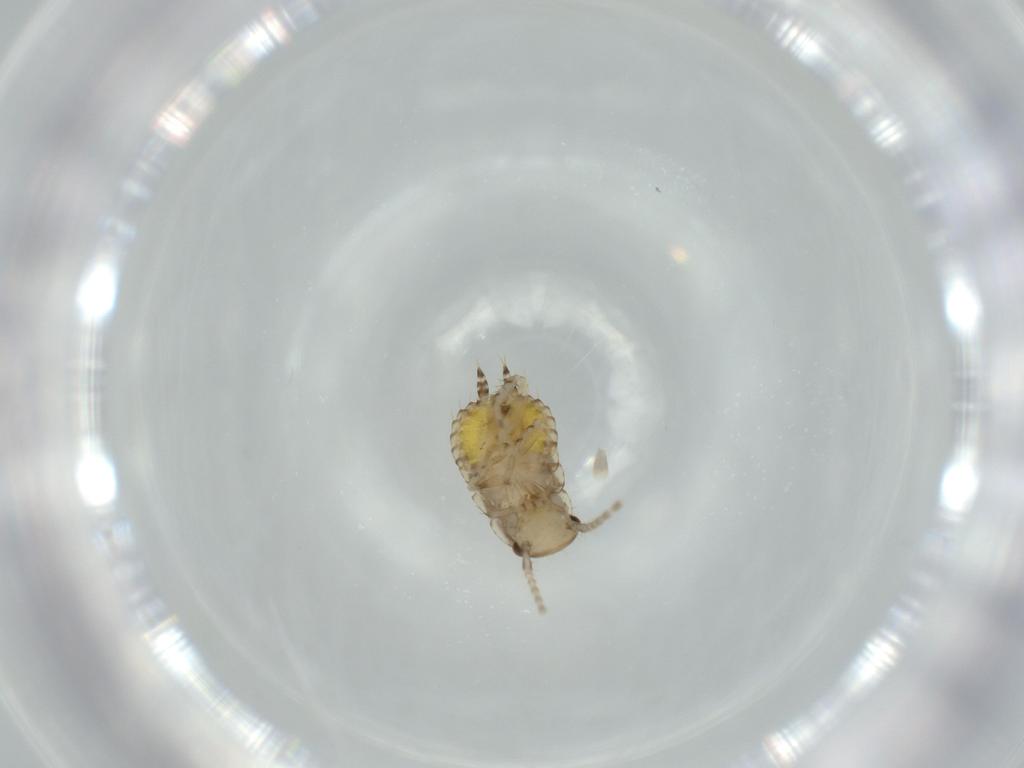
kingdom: Animalia
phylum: Arthropoda
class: Insecta
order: Blattodea
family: Ectobiidae
